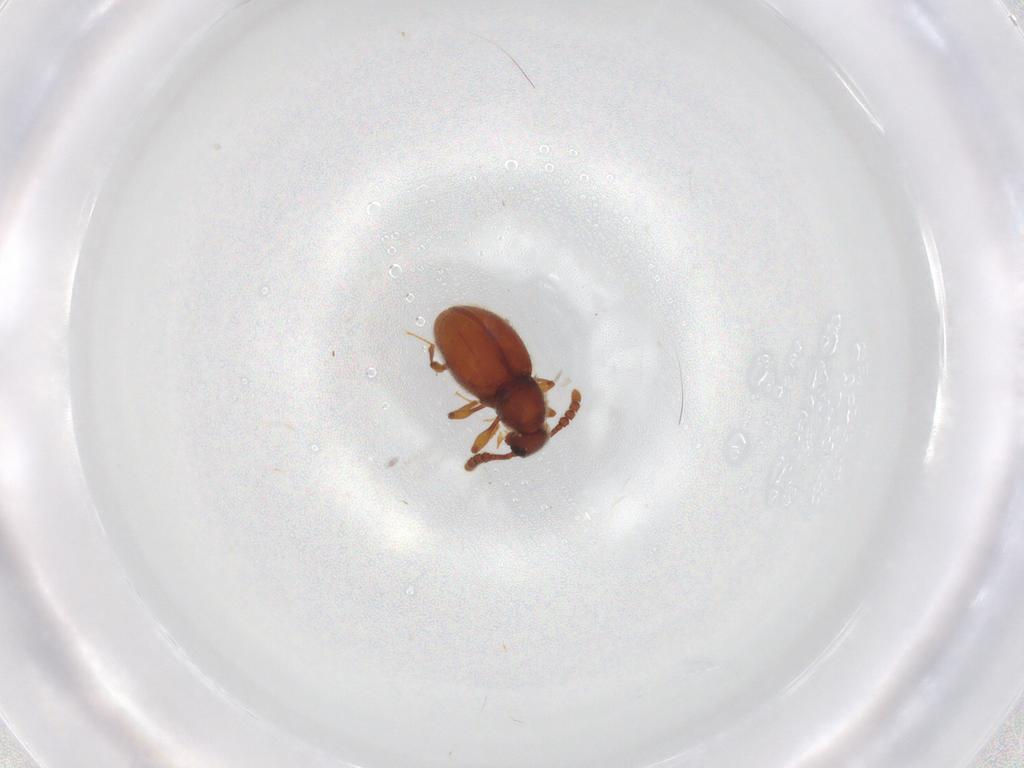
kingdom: Animalia
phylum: Arthropoda
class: Insecta
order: Coleoptera
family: Staphylinidae
